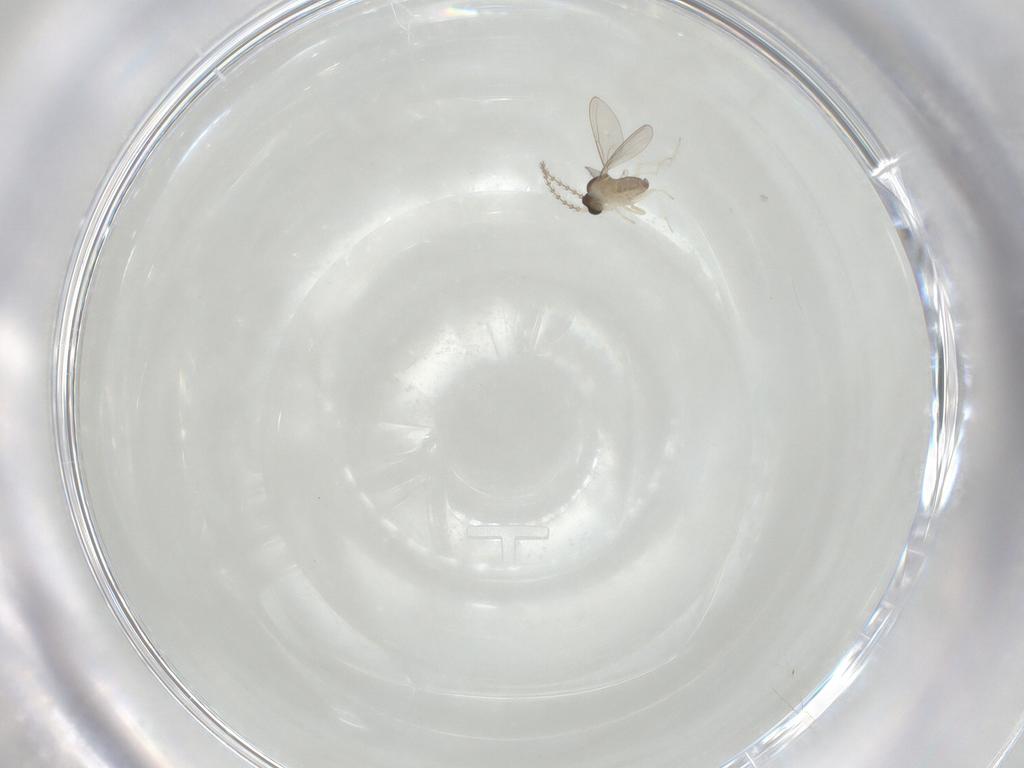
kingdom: Animalia
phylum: Arthropoda
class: Insecta
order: Diptera
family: Cecidomyiidae
